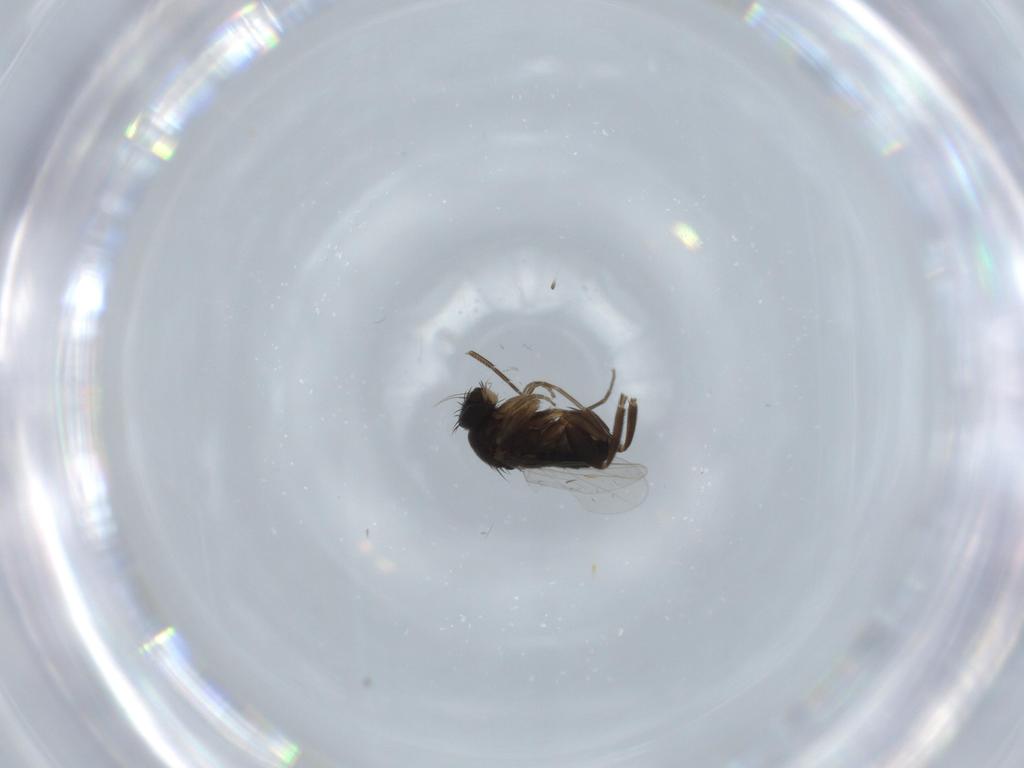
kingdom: Animalia
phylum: Arthropoda
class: Insecta
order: Diptera
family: Phoridae
